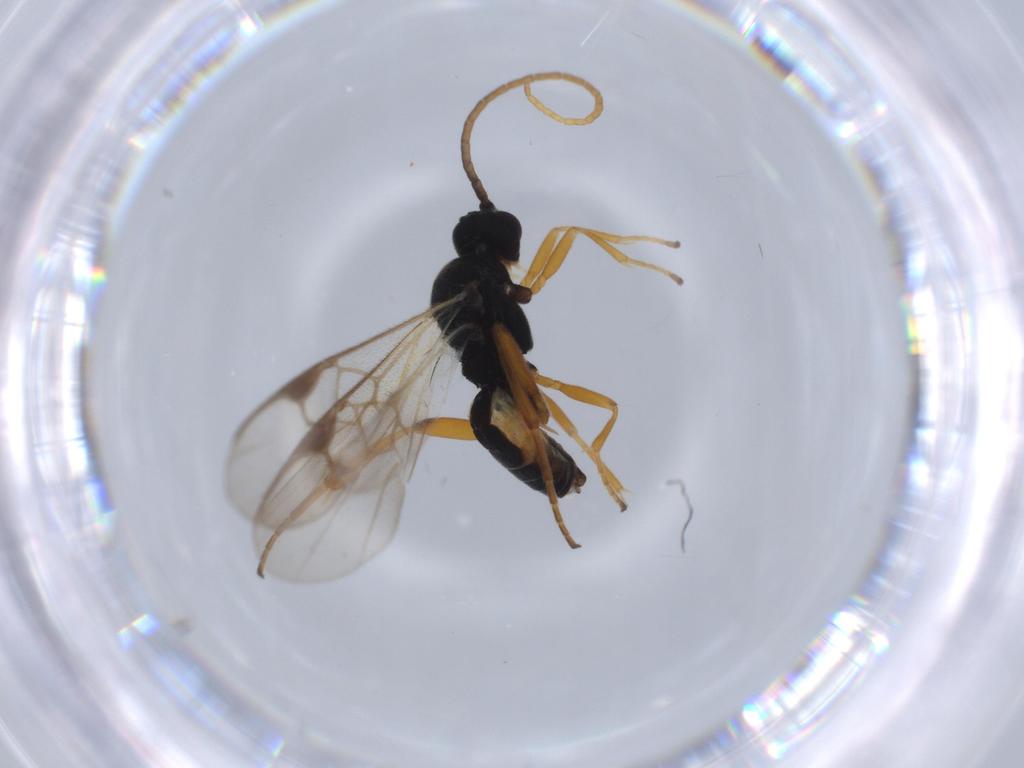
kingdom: Animalia
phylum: Arthropoda
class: Insecta
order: Hymenoptera
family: Braconidae
